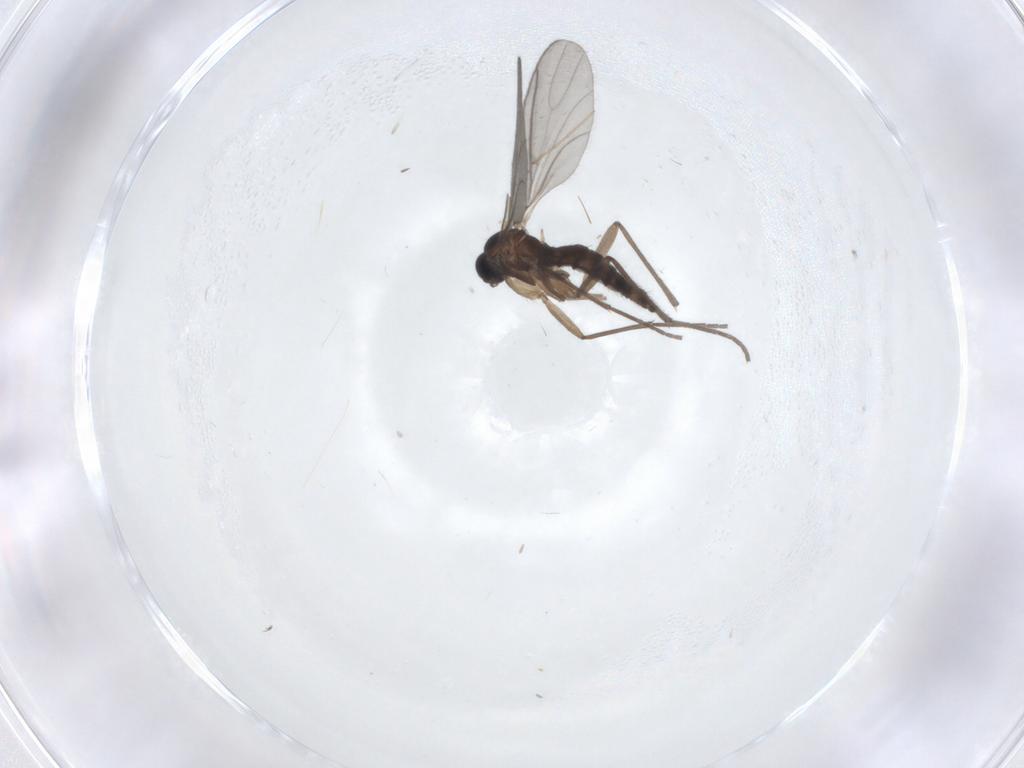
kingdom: Animalia
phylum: Arthropoda
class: Insecta
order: Diptera
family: Sciaridae
